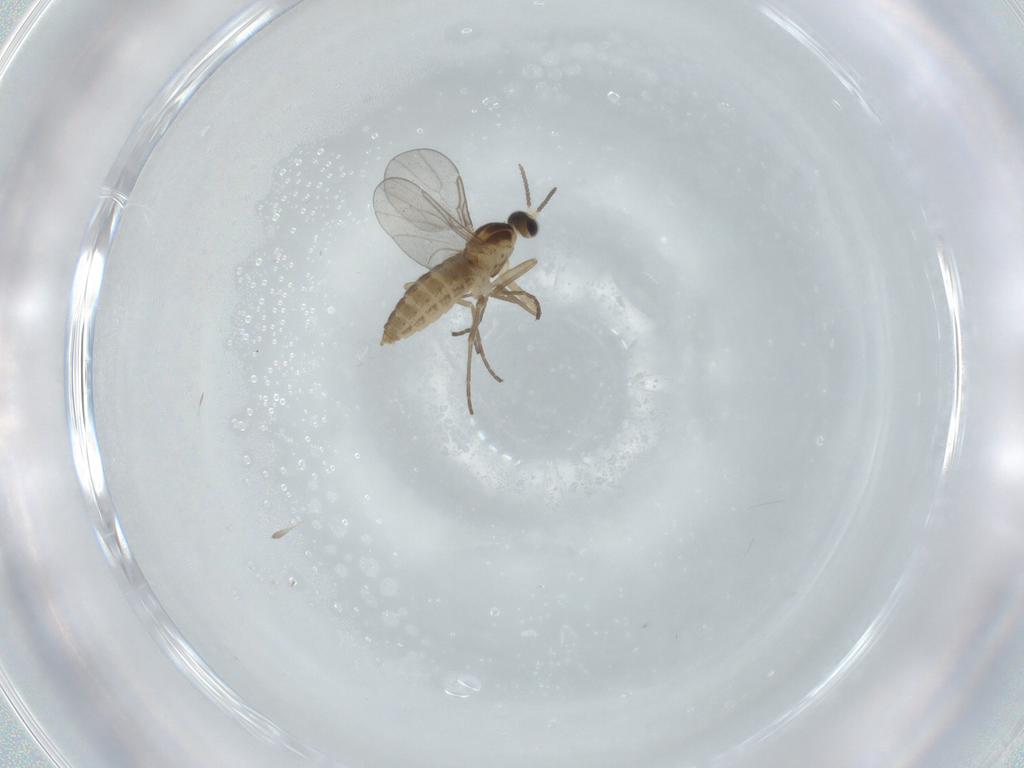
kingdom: Animalia
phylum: Arthropoda
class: Insecta
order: Diptera
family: Cecidomyiidae
